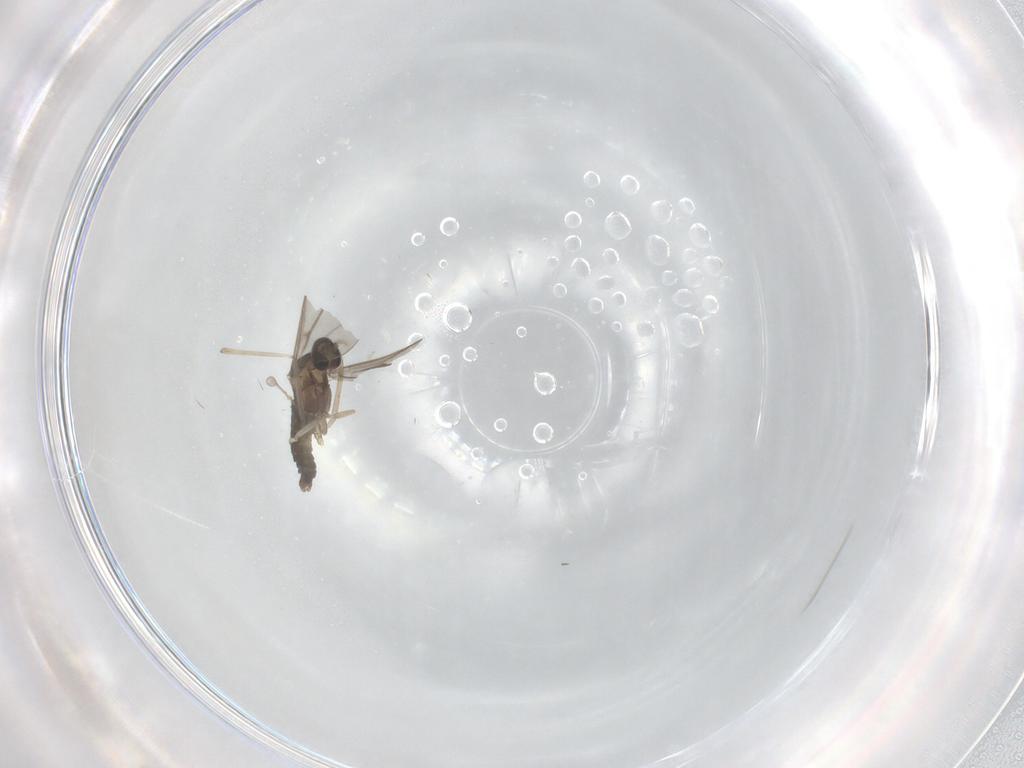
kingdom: Animalia
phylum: Arthropoda
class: Insecta
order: Diptera
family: Cecidomyiidae
